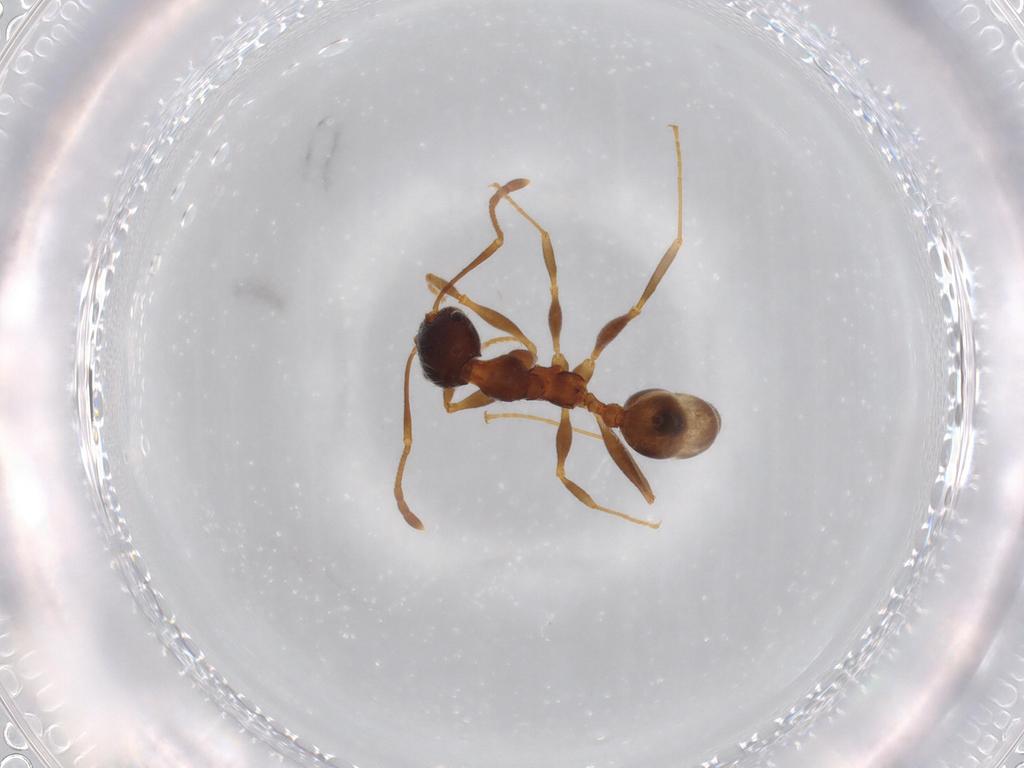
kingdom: Animalia
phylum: Arthropoda
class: Insecta
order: Hymenoptera
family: Formicidae
